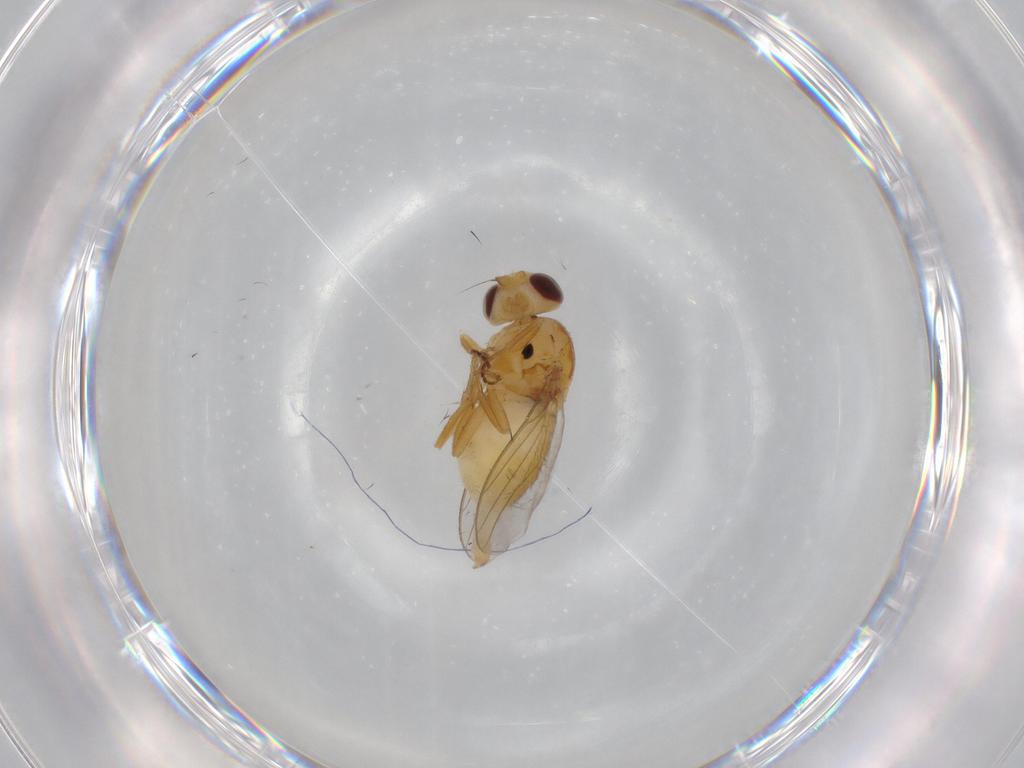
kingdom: Animalia
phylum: Arthropoda
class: Insecta
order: Diptera
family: Chloropidae
